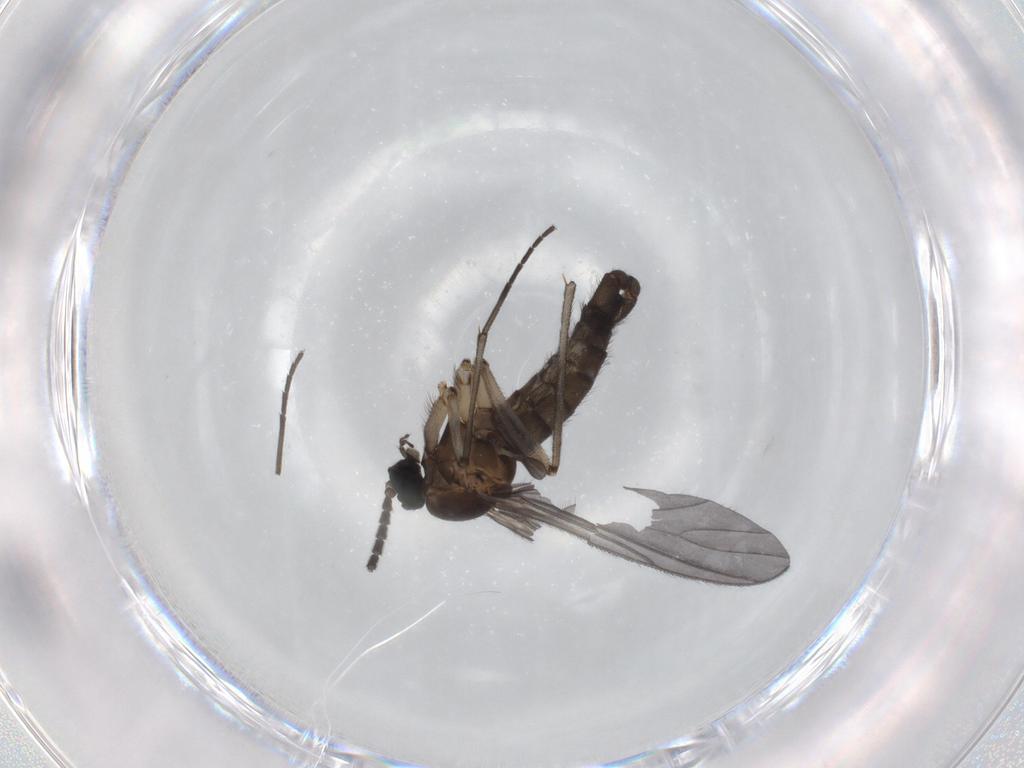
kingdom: Animalia
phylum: Arthropoda
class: Insecta
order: Diptera
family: Sciaridae
